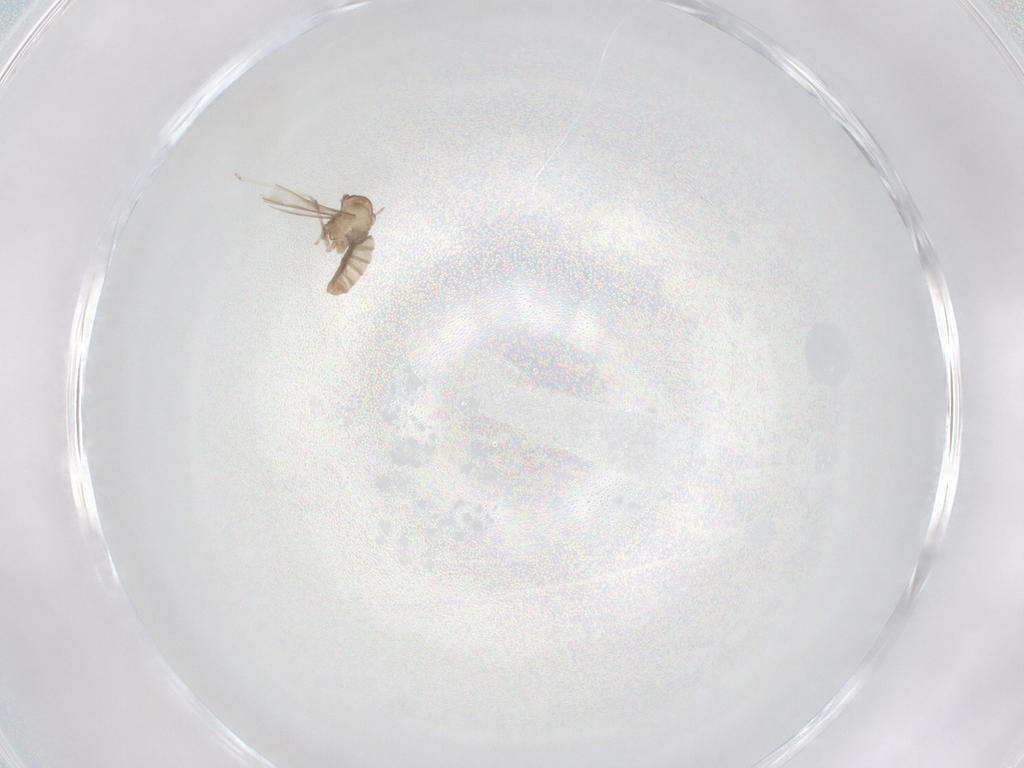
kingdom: Animalia
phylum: Arthropoda
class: Insecta
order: Diptera
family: Cecidomyiidae
